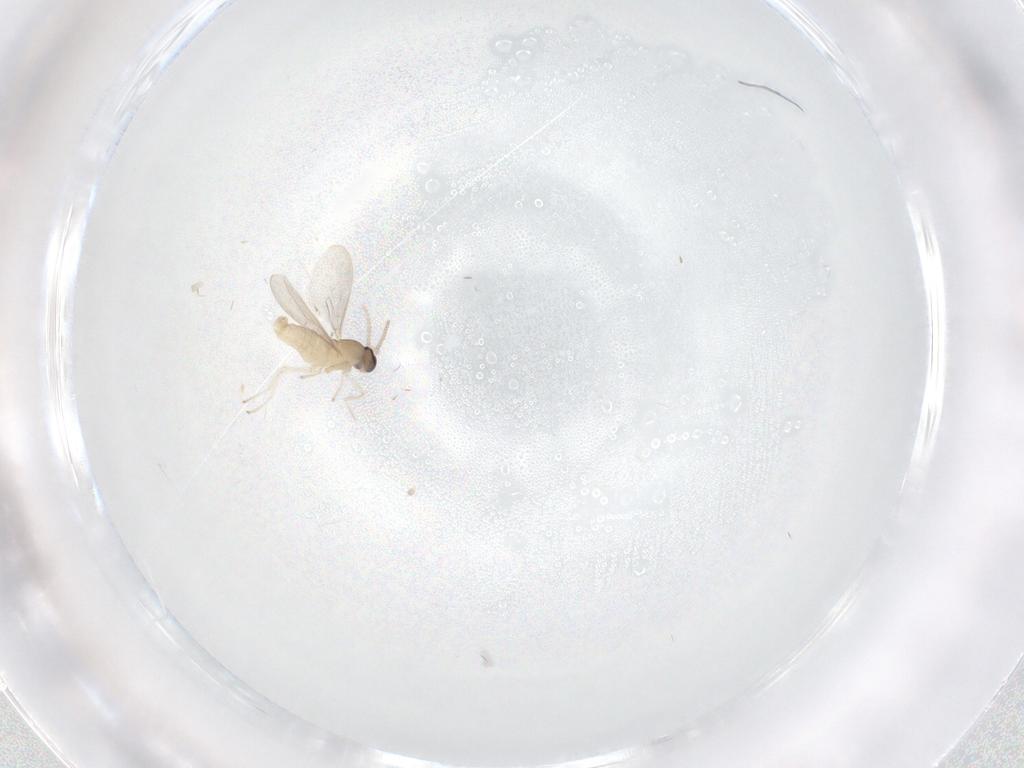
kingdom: Animalia
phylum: Arthropoda
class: Insecta
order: Diptera
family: Cecidomyiidae
